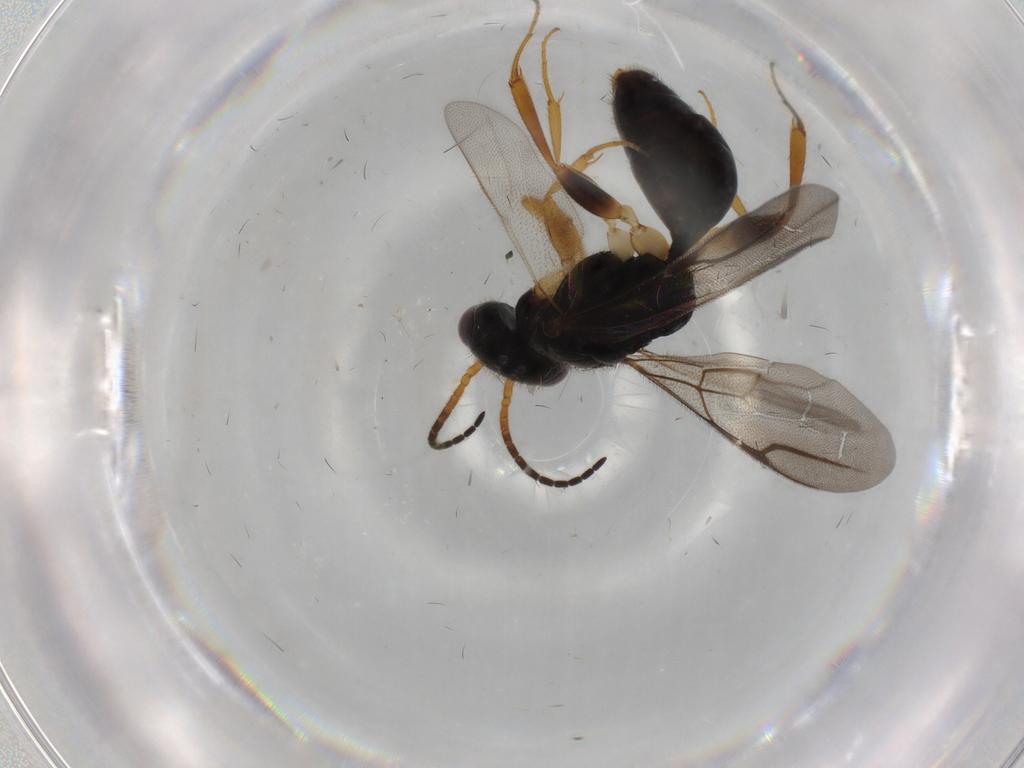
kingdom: Animalia
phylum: Arthropoda
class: Insecta
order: Hymenoptera
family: Bethylidae
